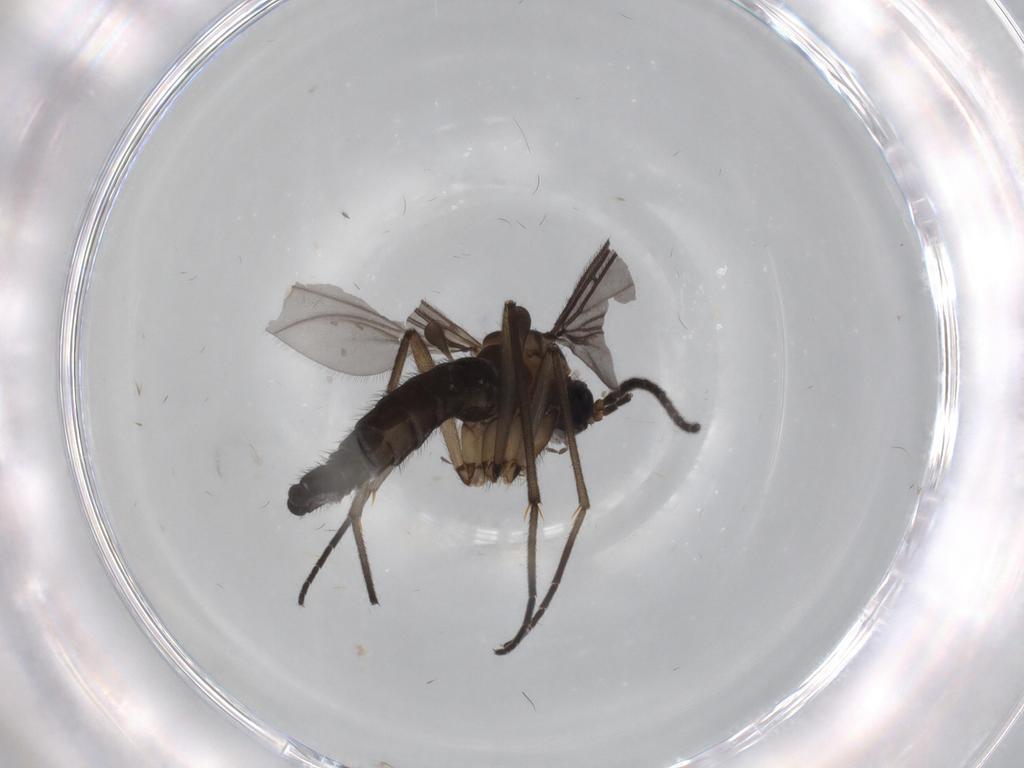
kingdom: Animalia
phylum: Arthropoda
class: Insecta
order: Diptera
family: Sciaridae
